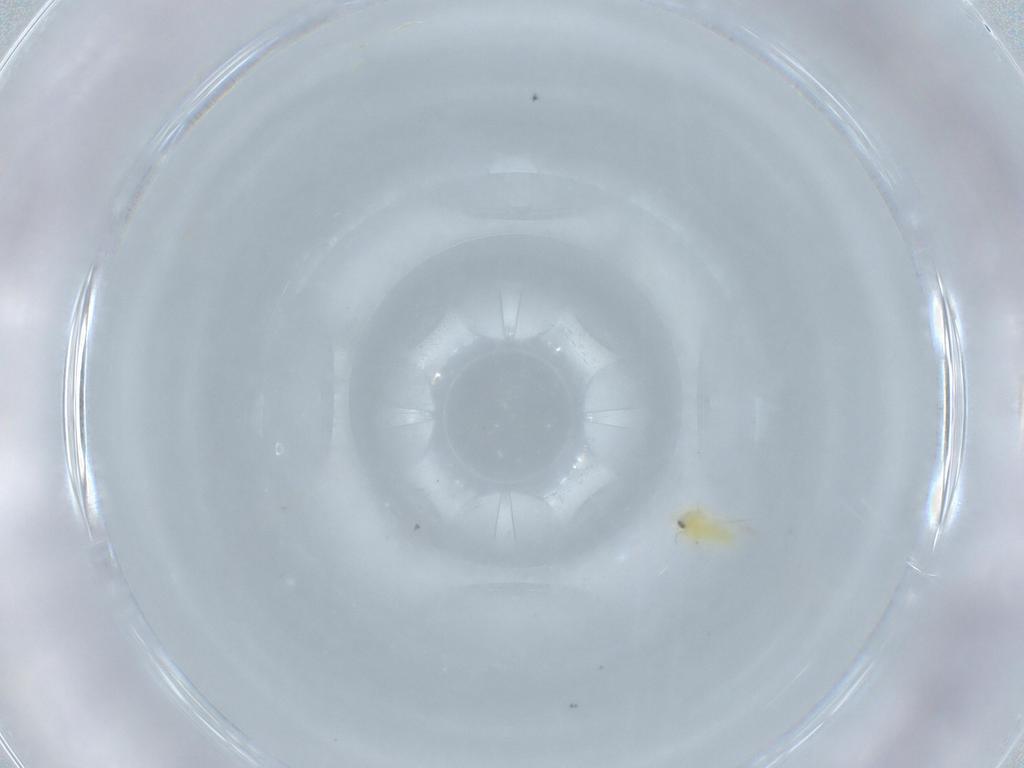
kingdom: Animalia
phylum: Arthropoda
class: Insecta
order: Hemiptera
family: Aleyrodidae
